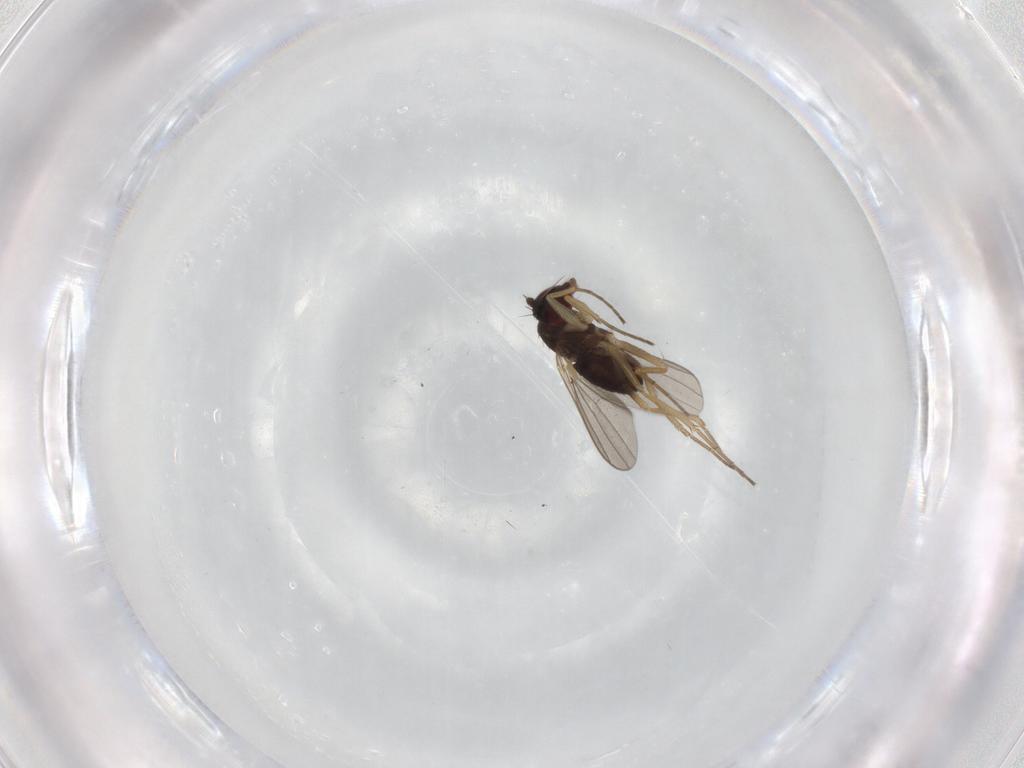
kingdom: Animalia
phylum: Arthropoda
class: Insecta
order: Diptera
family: Dolichopodidae
